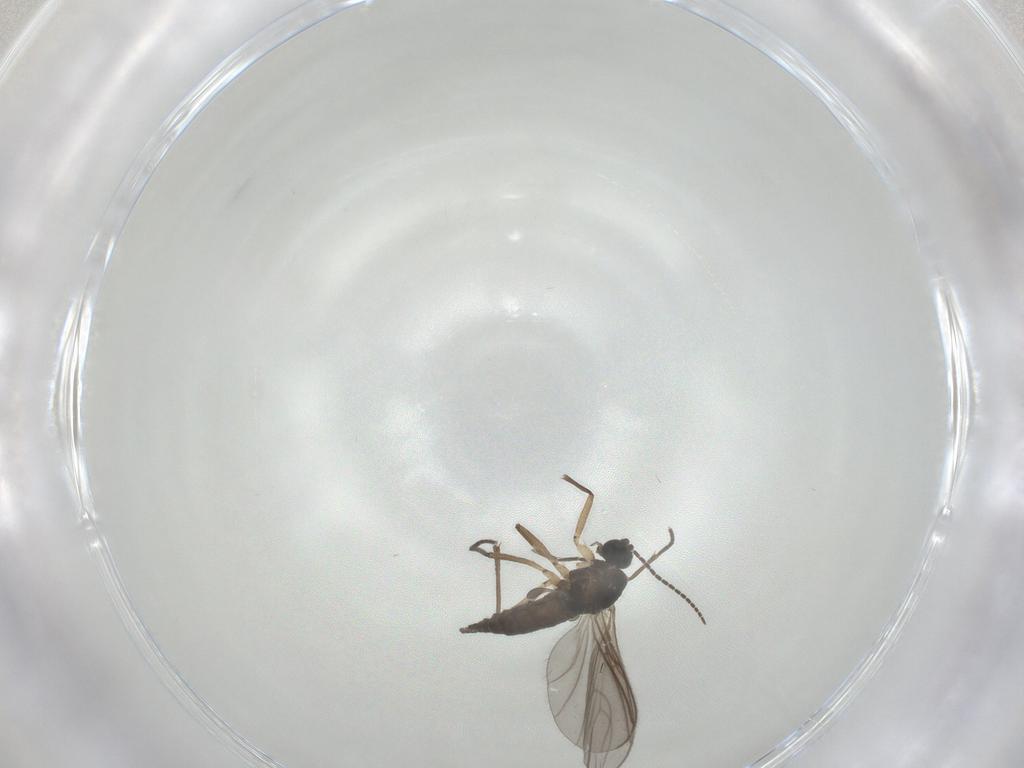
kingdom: Animalia
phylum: Arthropoda
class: Insecta
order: Diptera
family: Sciaridae
